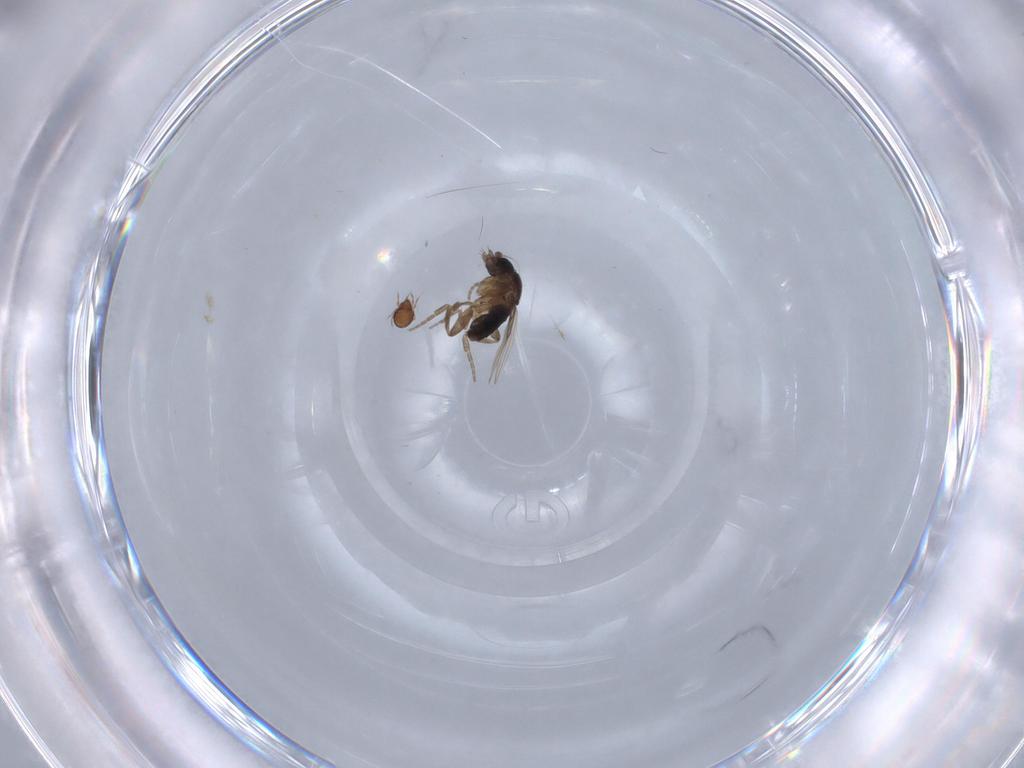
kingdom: Animalia
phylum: Arthropoda
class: Insecta
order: Diptera
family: Phoridae
